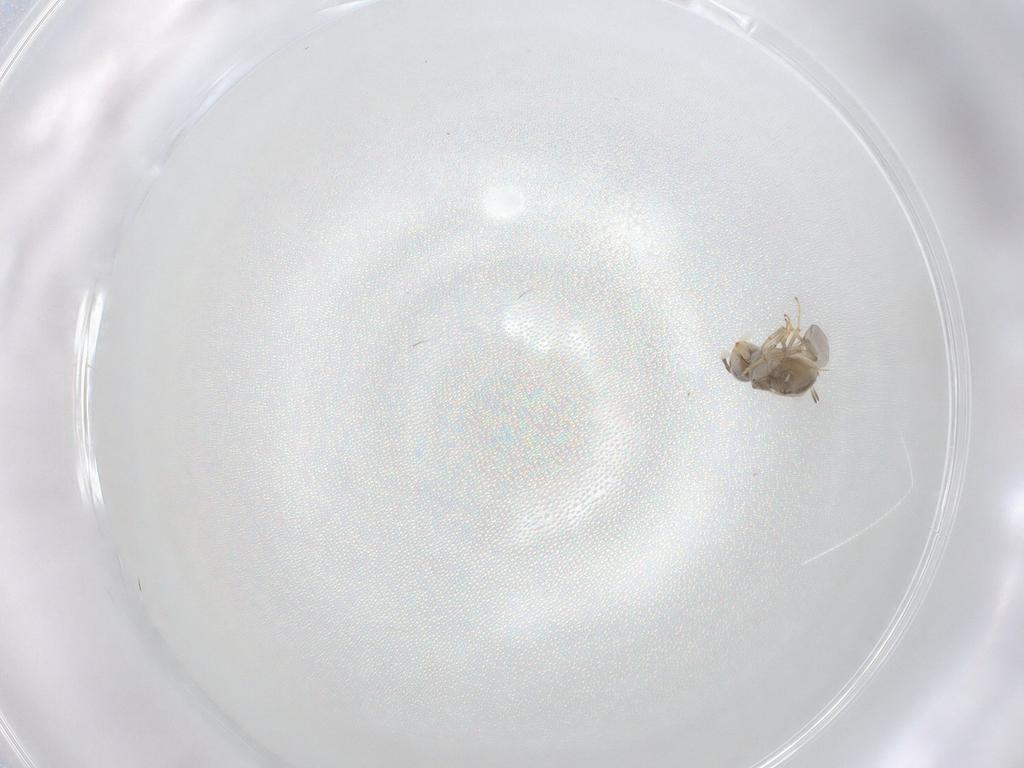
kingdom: Animalia
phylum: Arthropoda
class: Insecta
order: Hymenoptera
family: Encyrtidae
